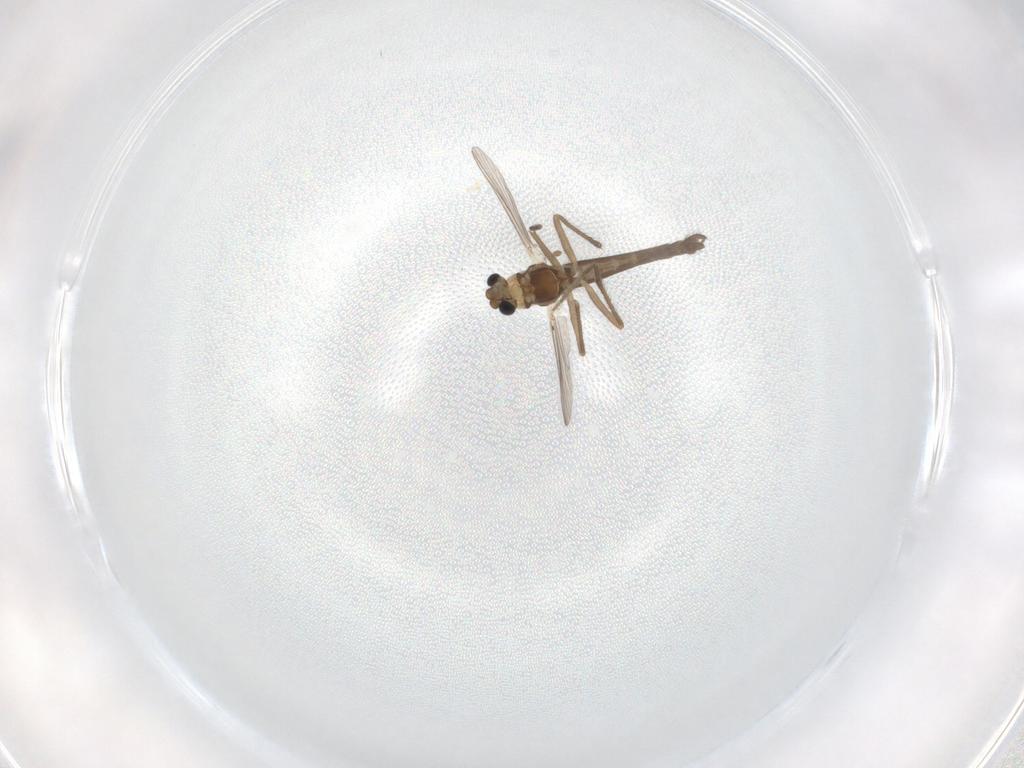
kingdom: Animalia
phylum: Arthropoda
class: Insecta
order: Diptera
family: Chironomidae
